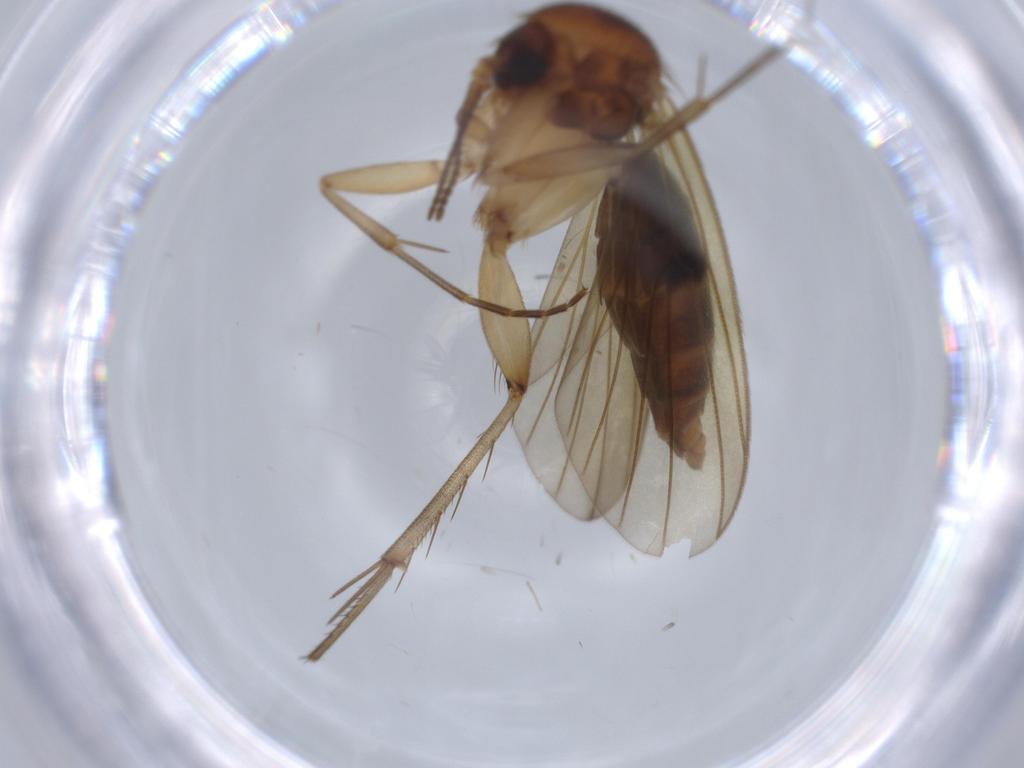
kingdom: Animalia
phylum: Arthropoda
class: Insecta
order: Diptera
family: Mycetophilidae
